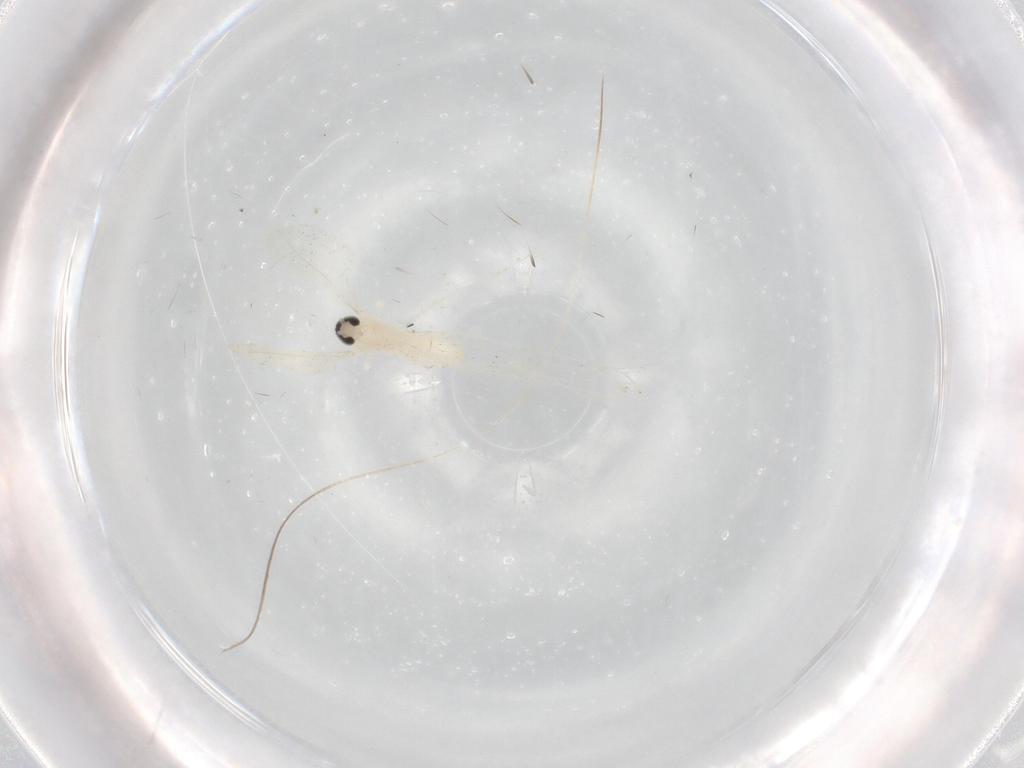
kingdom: Animalia
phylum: Arthropoda
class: Insecta
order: Diptera
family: Cecidomyiidae
